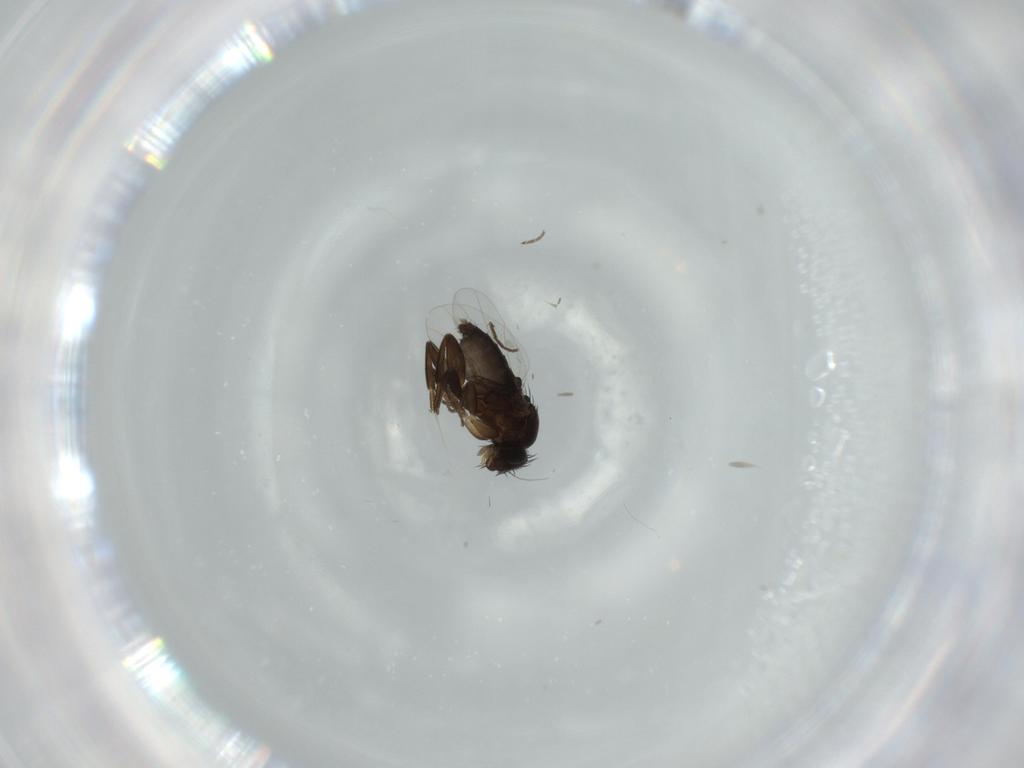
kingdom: Animalia
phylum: Arthropoda
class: Insecta
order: Diptera
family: Phoridae
